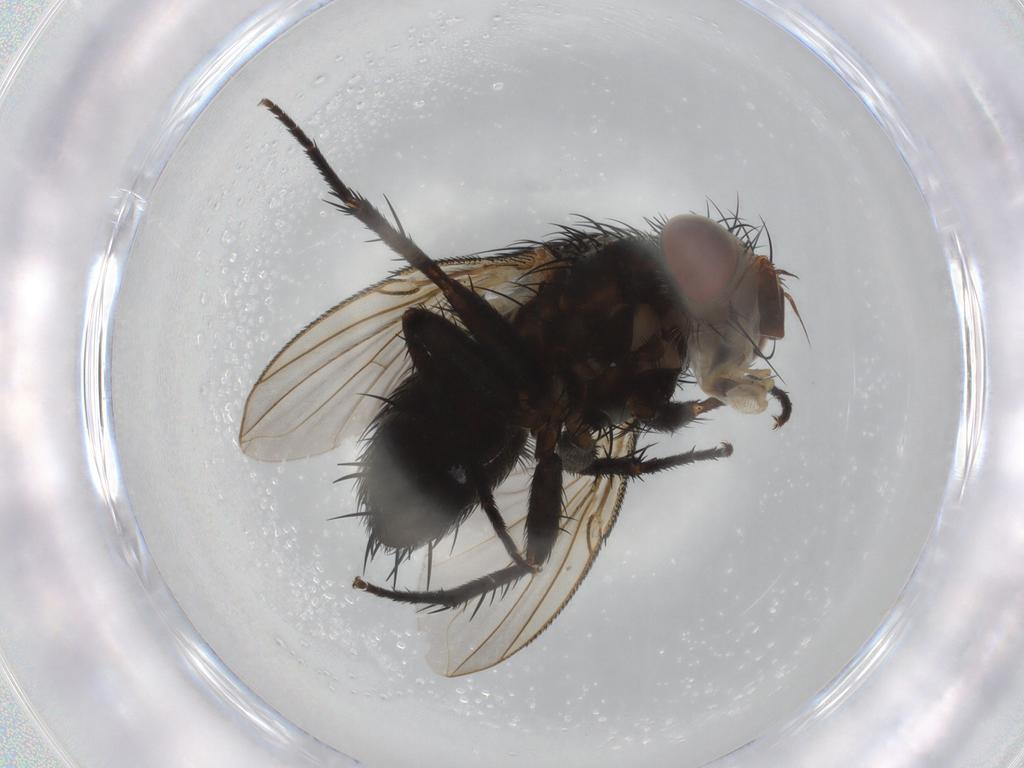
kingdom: Animalia
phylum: Arthropoda
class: Insecta
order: Diptera
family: Tachinidae
